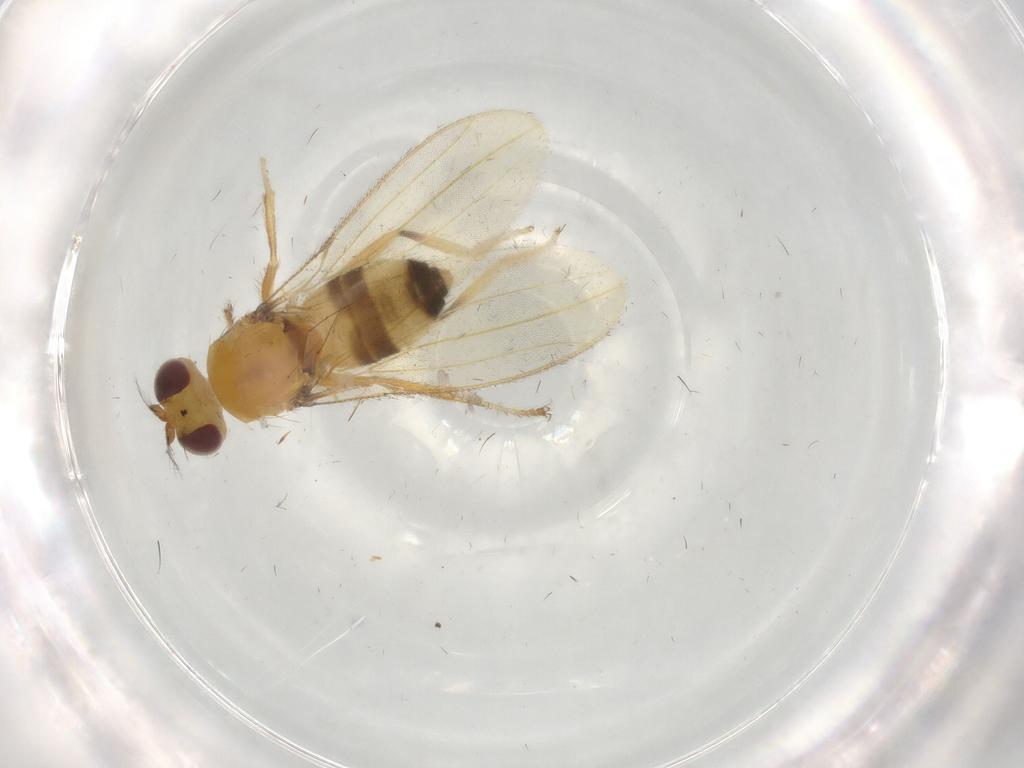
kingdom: Animalia
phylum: Arthropoda
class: Insecta
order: Diptera
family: Periscelididae
